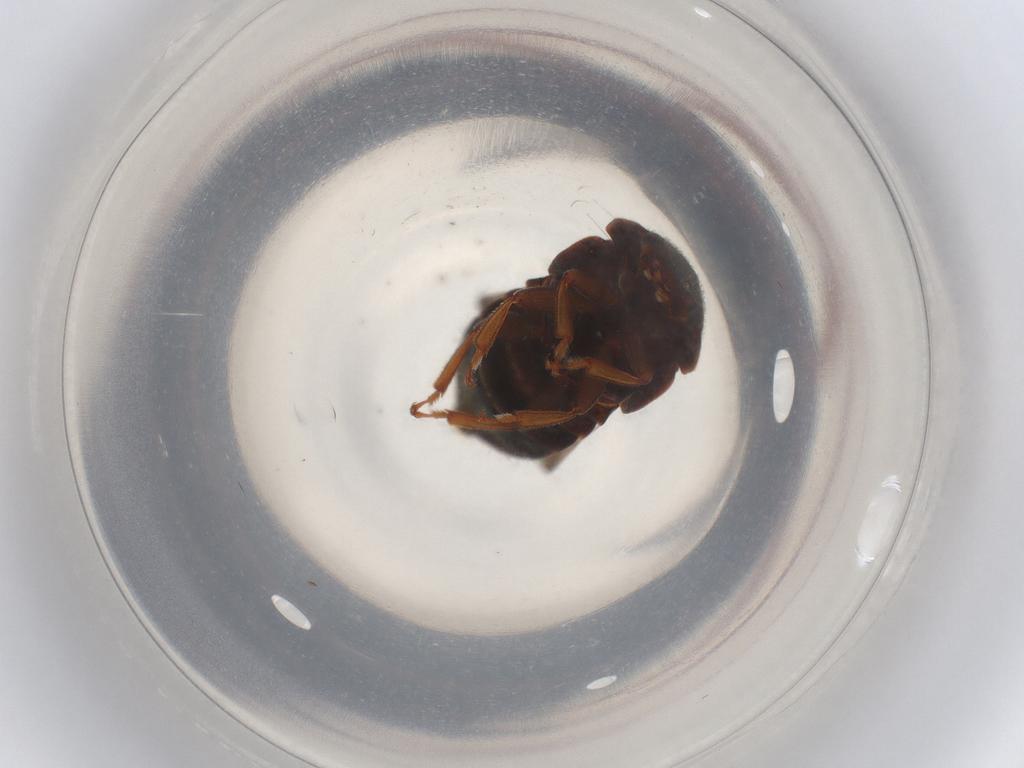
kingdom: Animalia
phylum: Arthropoda
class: Insecta
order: Coleoptera
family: Nitidulidae
